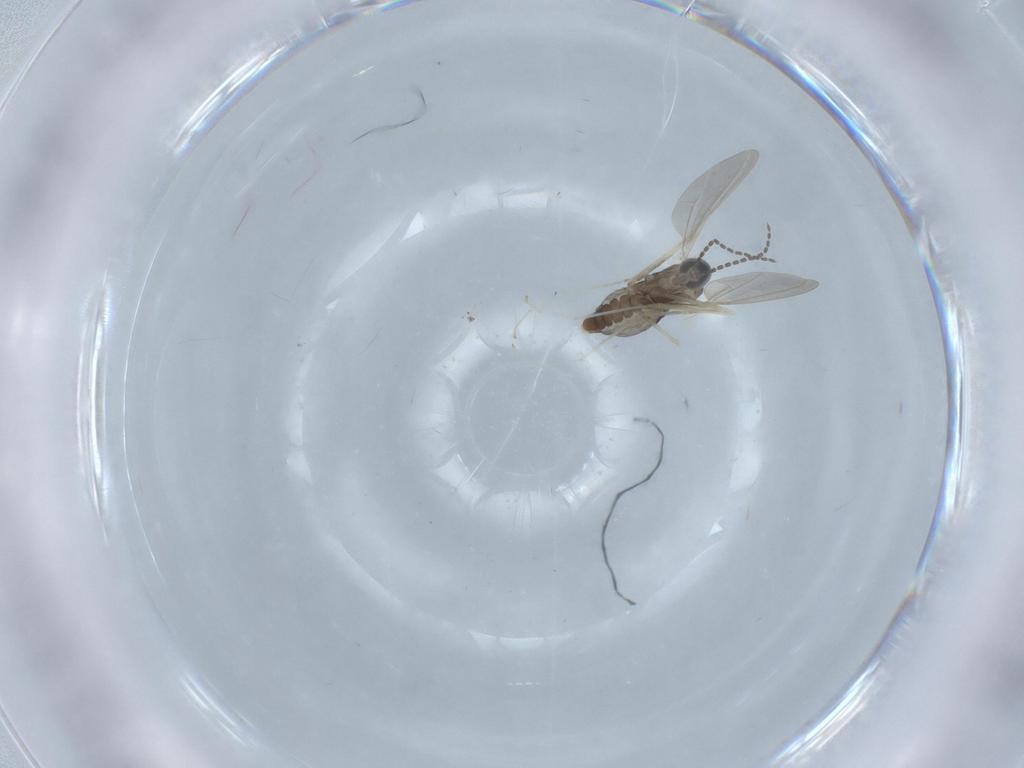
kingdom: Animalia
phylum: Arthropoda
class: Insecta
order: Diptera
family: Cecidomyiidae
